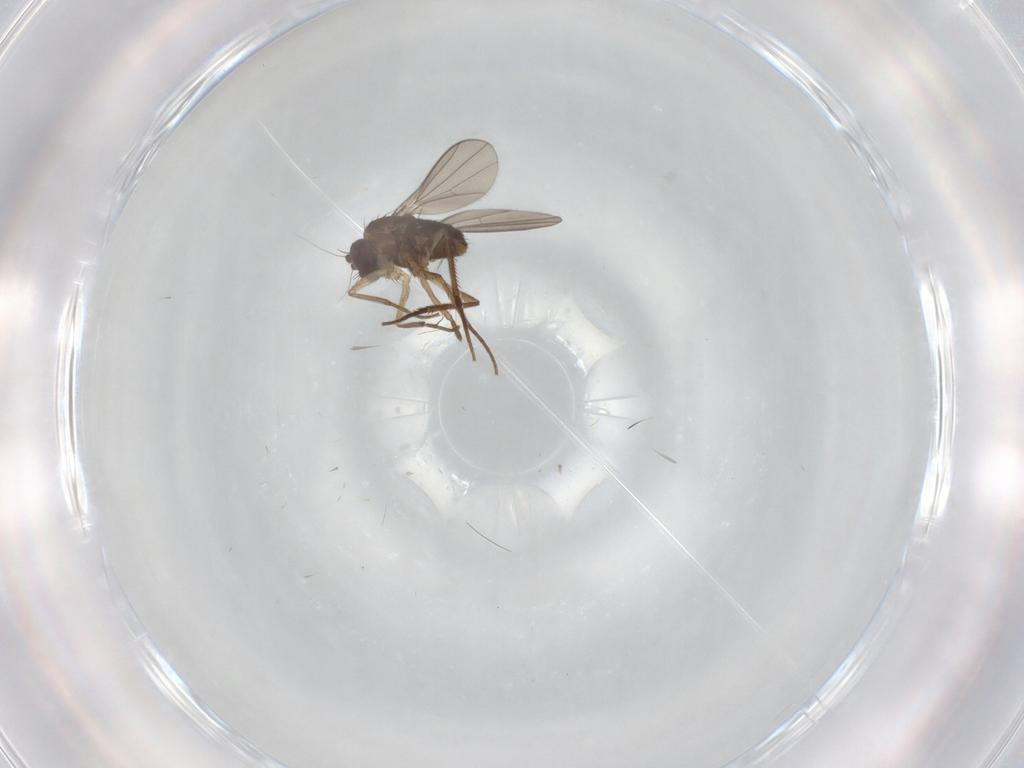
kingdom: Animalia
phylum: Arthropoda
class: Insecta
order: Diptera
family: Dolichopodidae
